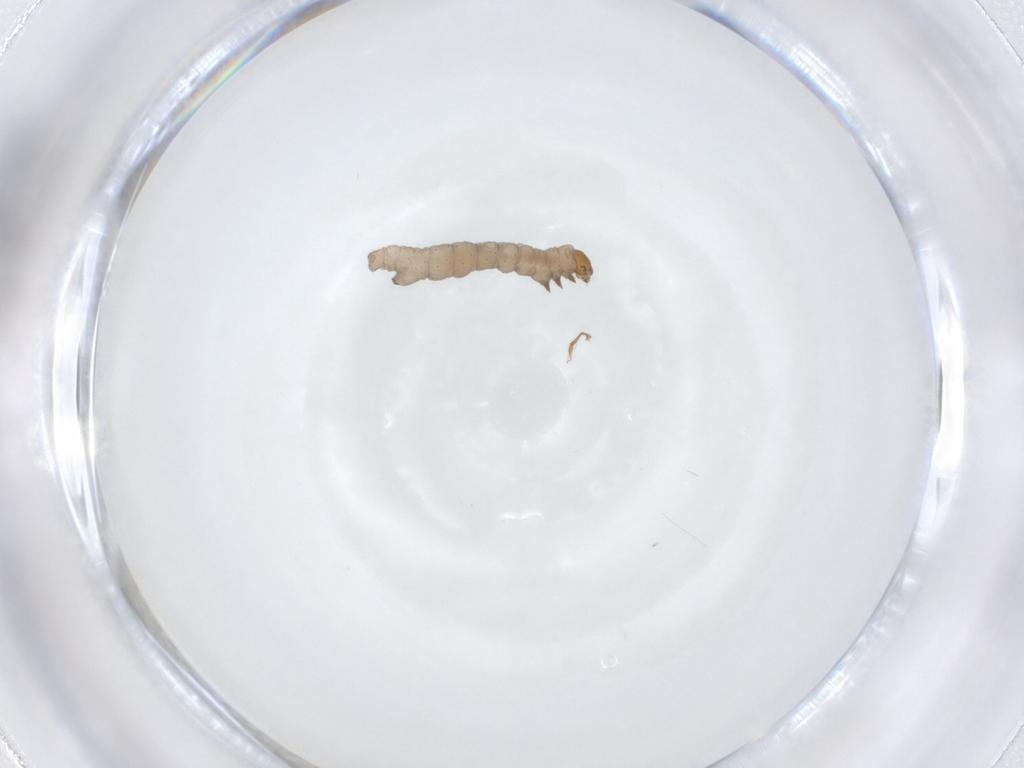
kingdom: Animalia
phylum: Arthropoda
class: Insecta
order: Lepidoptera
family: Geometridae
